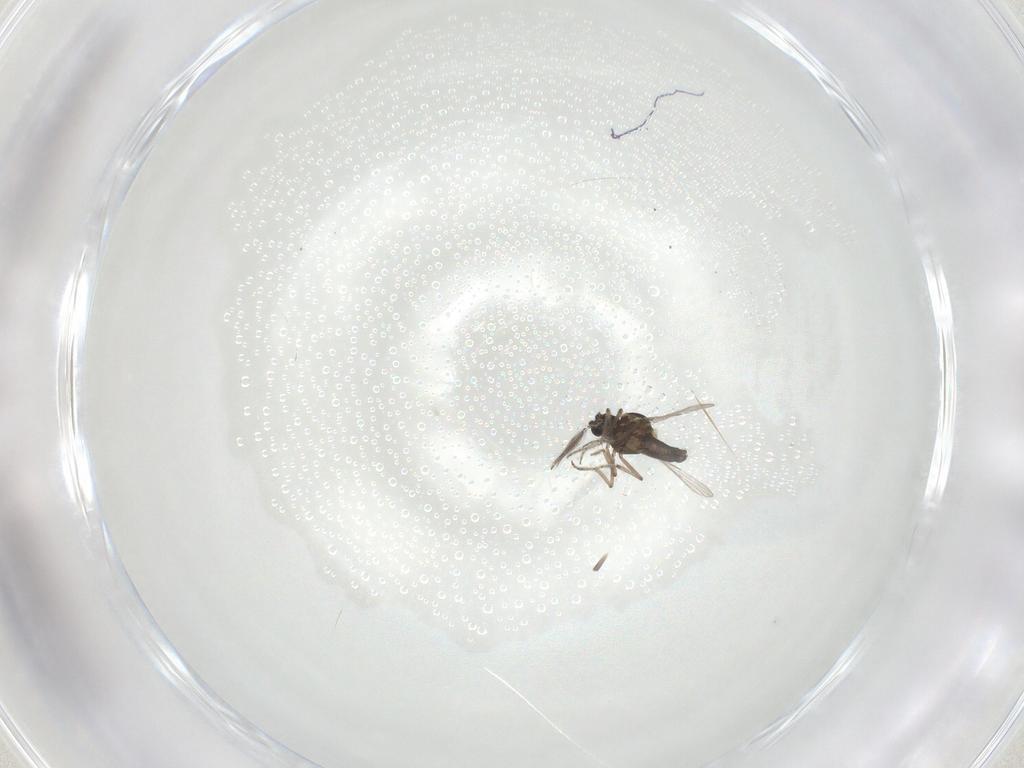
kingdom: Animalia
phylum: Arthropoda
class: Insecta
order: Diptera
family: Ceratopogonidae
